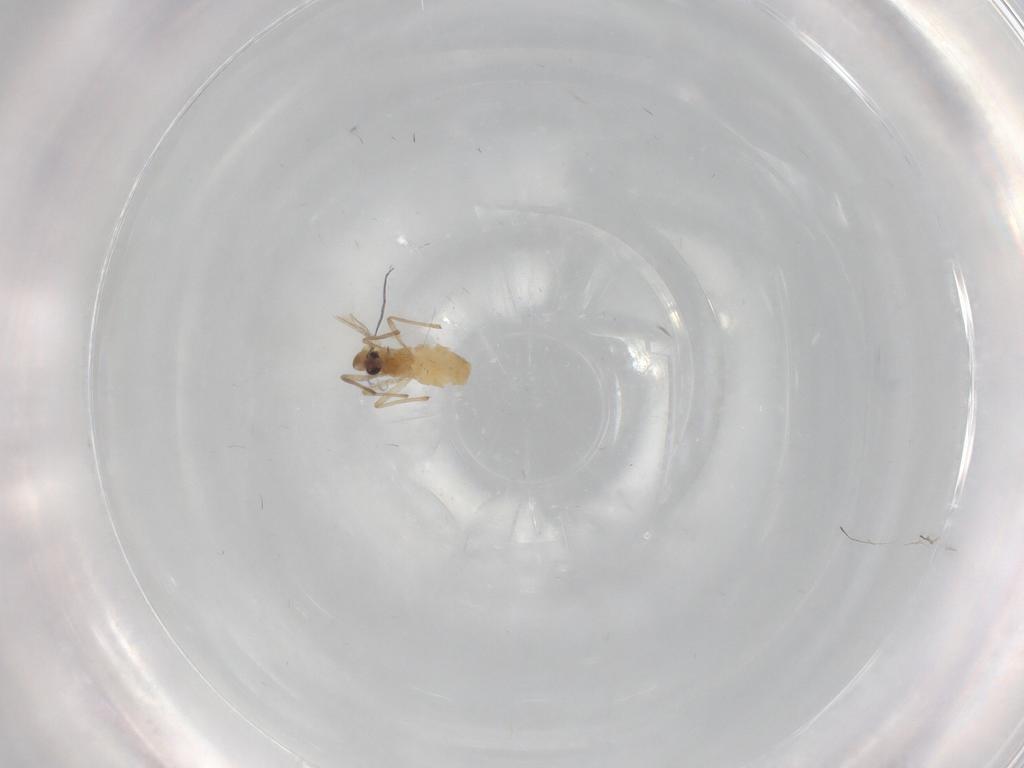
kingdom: Animalia
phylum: Arthropoda
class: Insecta
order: Diptera
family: Chironomidae
